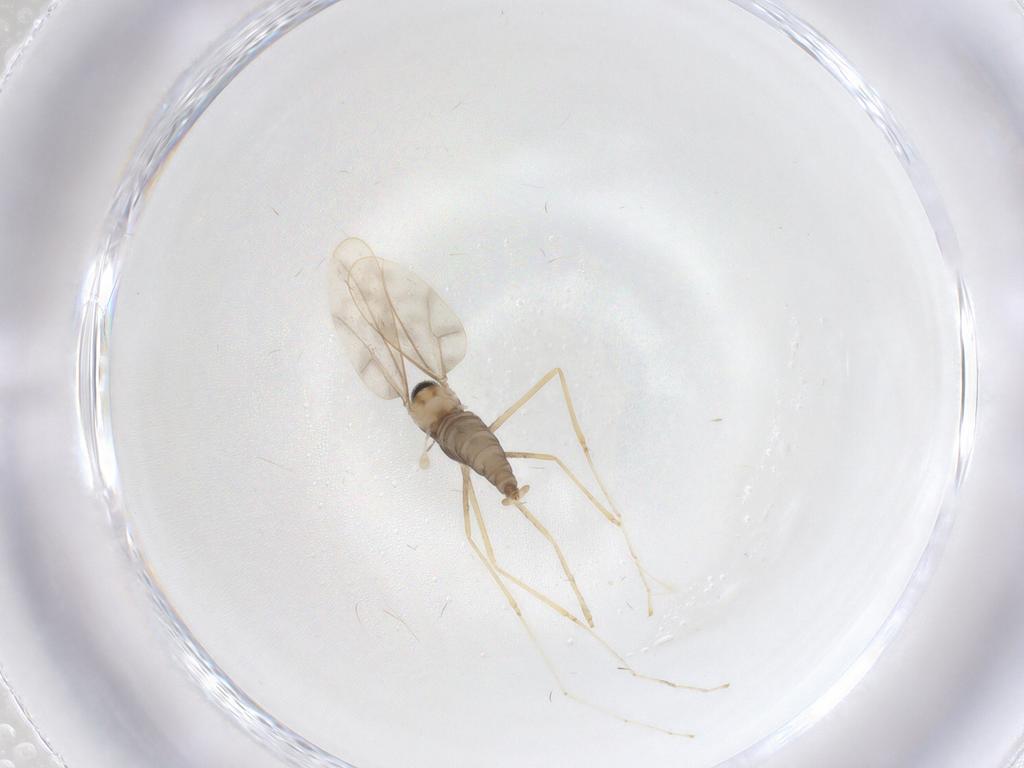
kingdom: Animalia
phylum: Arthropoda
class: Insecta
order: Diptera
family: Cecidomyiidae
